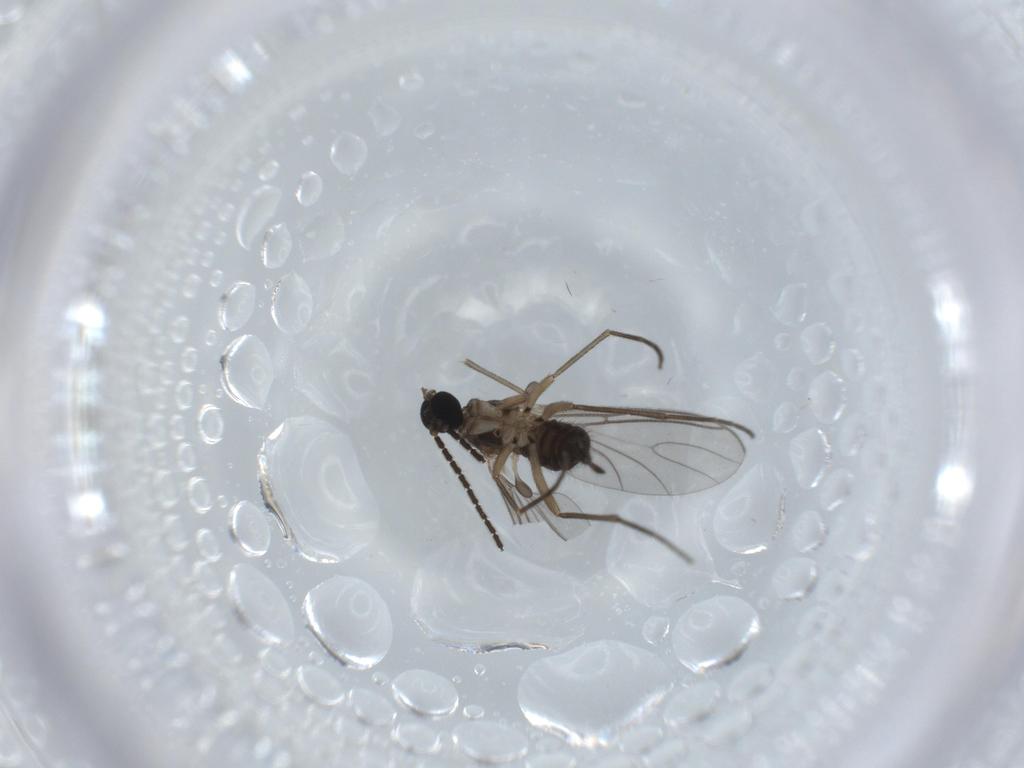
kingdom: Animalia
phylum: Arthropoda
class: Insecta
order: Diptera
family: Sciaridae
